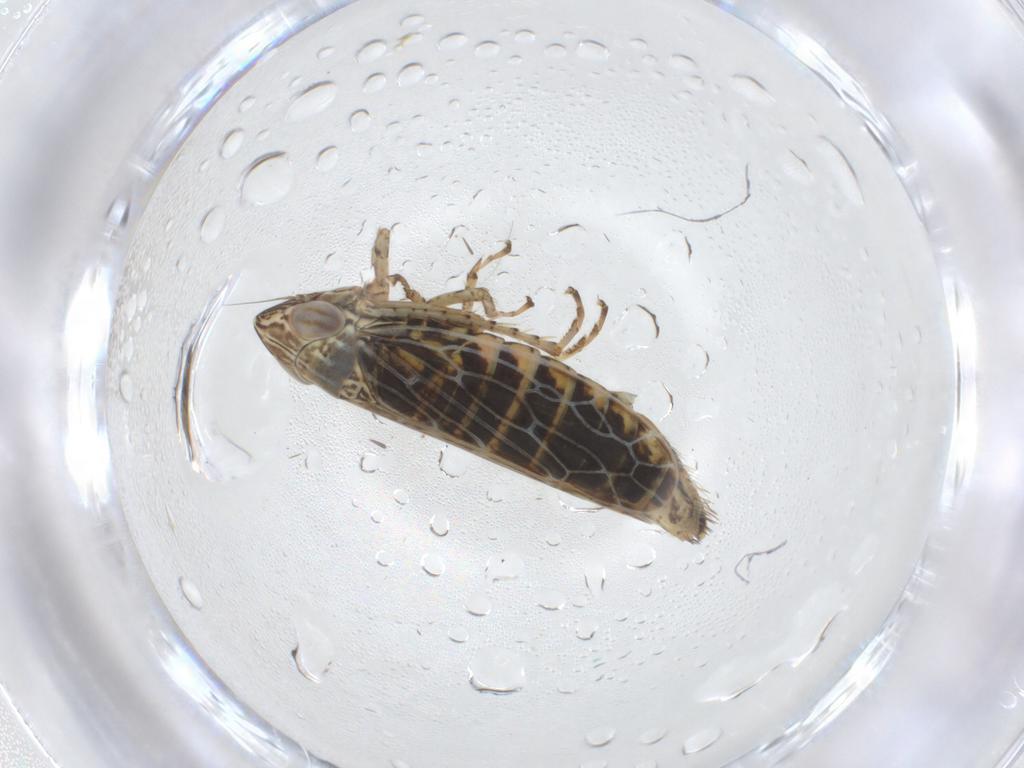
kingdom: Animalia
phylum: Arthropoda
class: Insecta
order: Hemiptera
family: Cicadellidae
